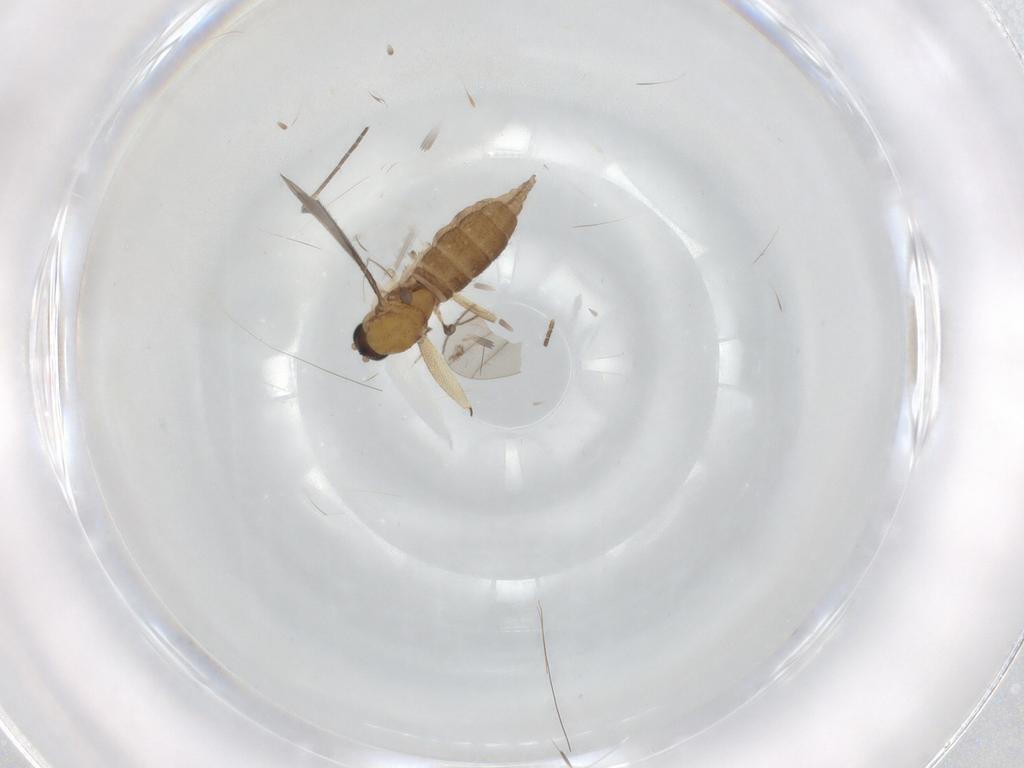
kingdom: Animalia
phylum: Arthropoda
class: Insecta
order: Diptera
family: Sciaridae
